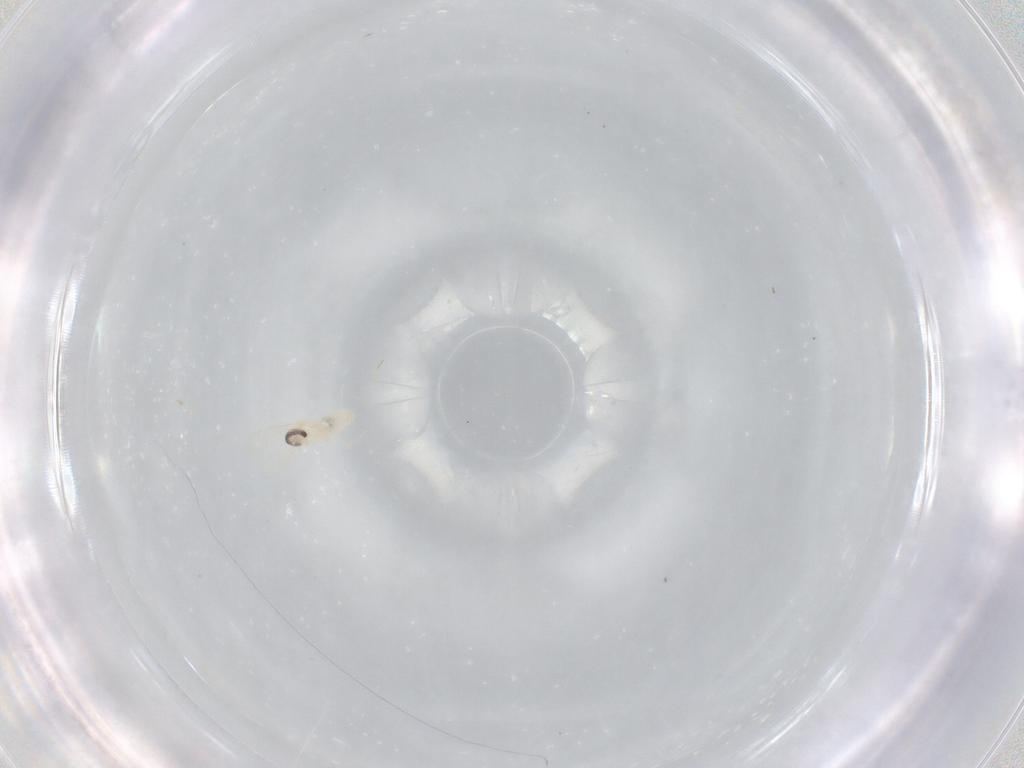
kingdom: Animalia
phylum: Arthropoda
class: Insecta
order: Diptera
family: Cecidomyiidae
